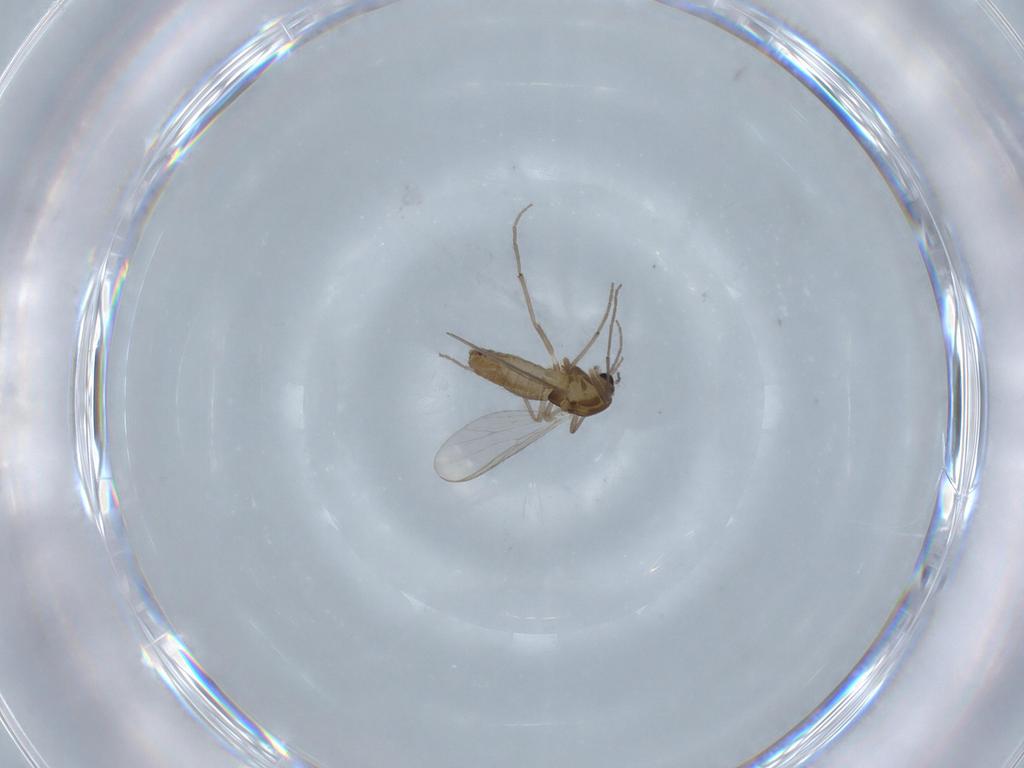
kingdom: Animalia
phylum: Arthropoda
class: Insecta
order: Diptera
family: Chironomidae
